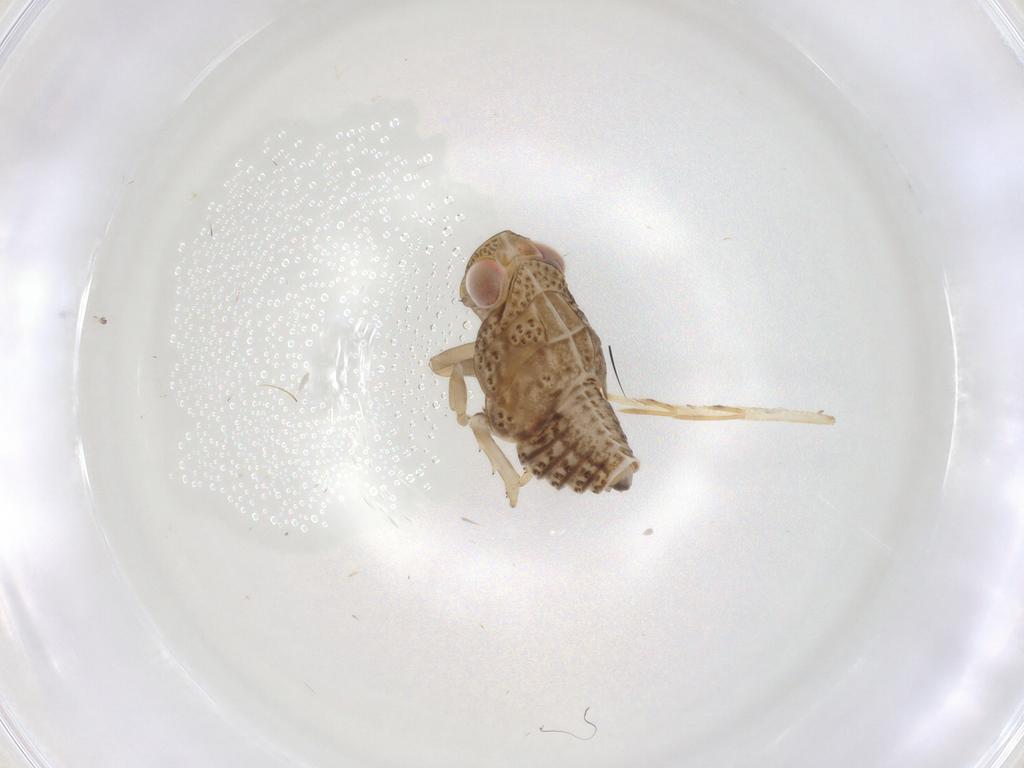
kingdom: Animalia
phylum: Arthropoda
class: Insecta
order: Hemiptera
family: Issidae
